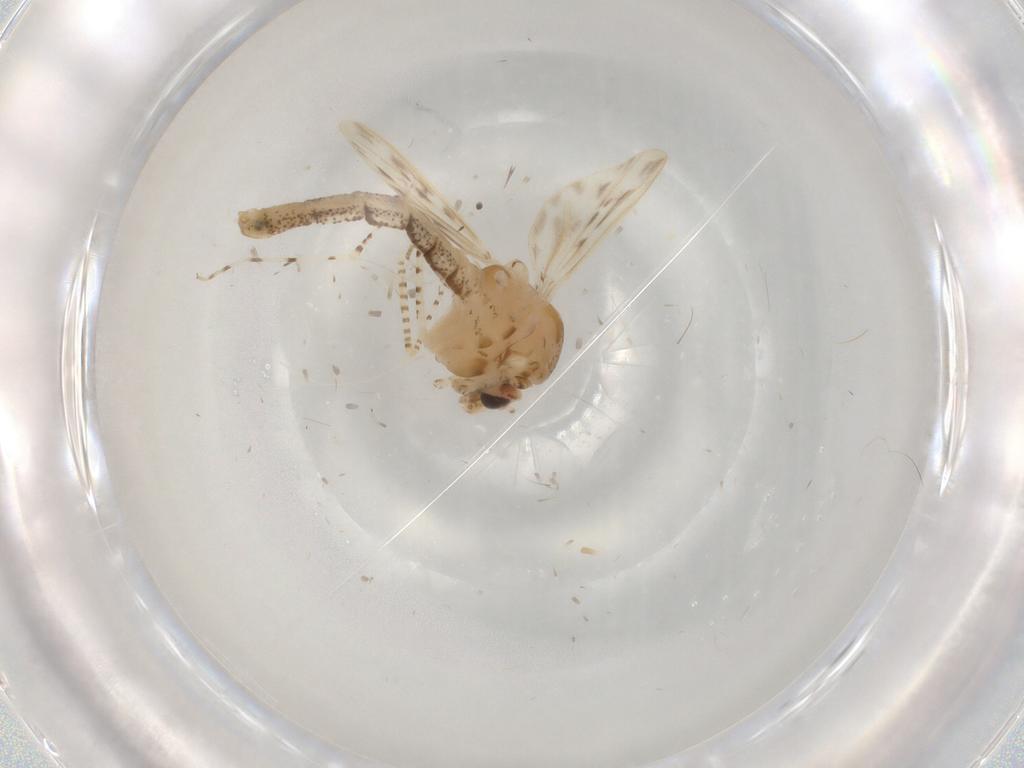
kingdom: Animalia
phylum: Arthropoda
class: Insecta
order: Diptera
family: Chaoboridae
